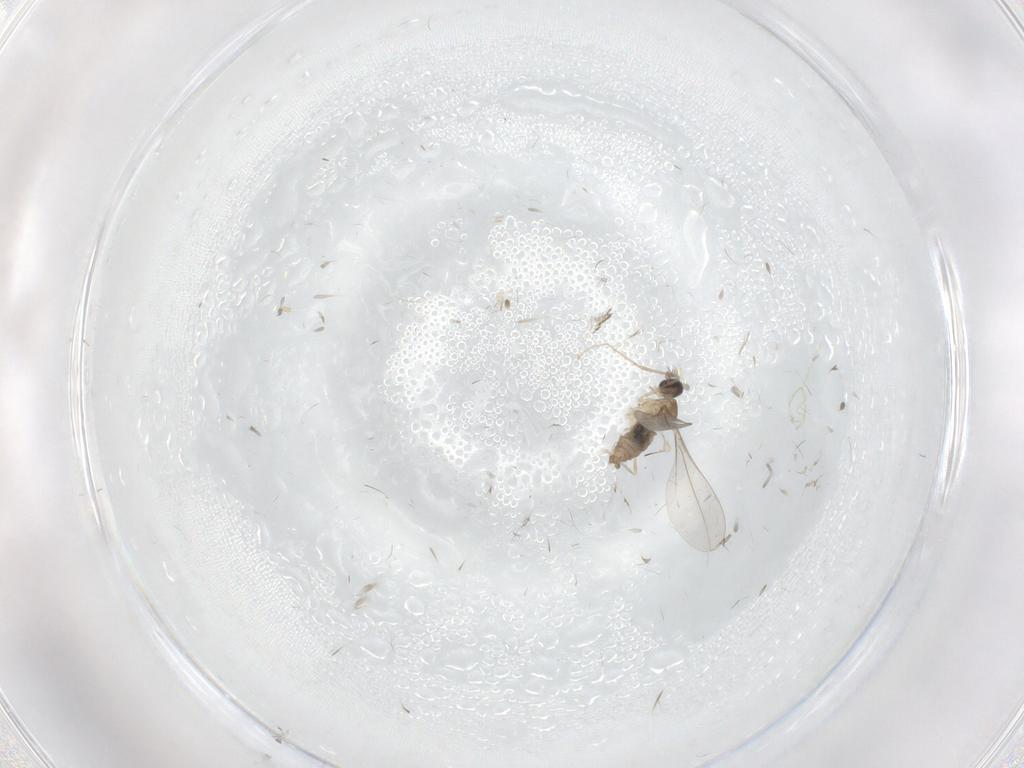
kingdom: Animalia
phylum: Arthropoda
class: Insecta
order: Diptera
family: Cecidomyiidae
